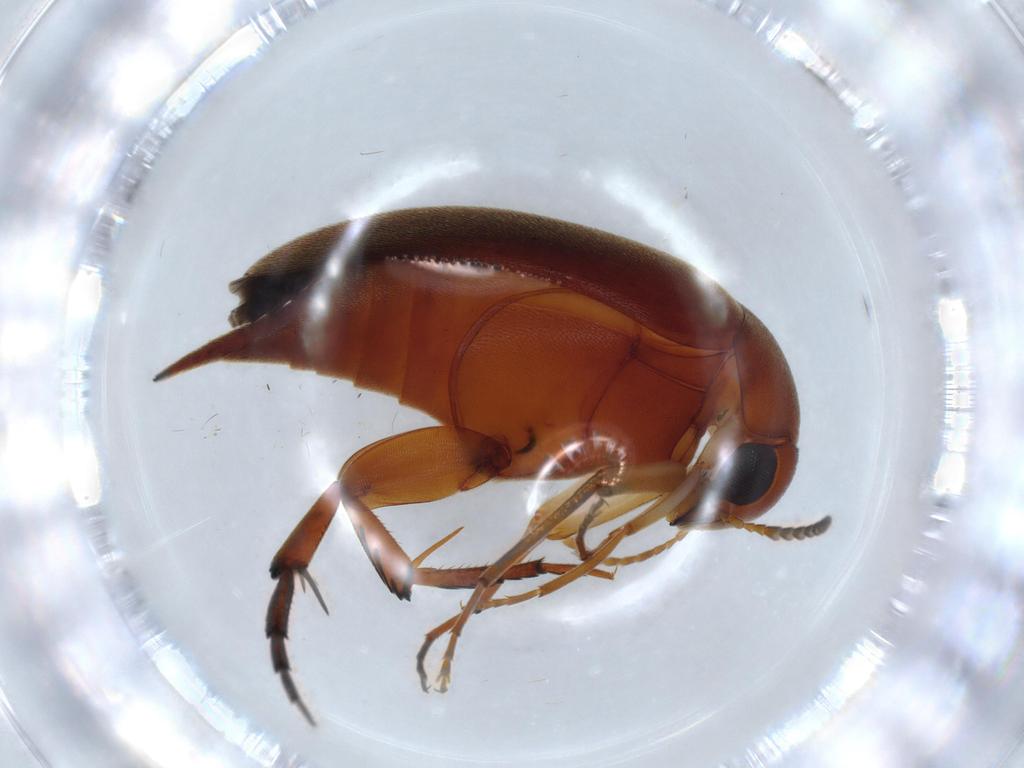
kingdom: Animalia
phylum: Arthropoda
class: Insecta
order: Coleoptera
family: Mordellidae
